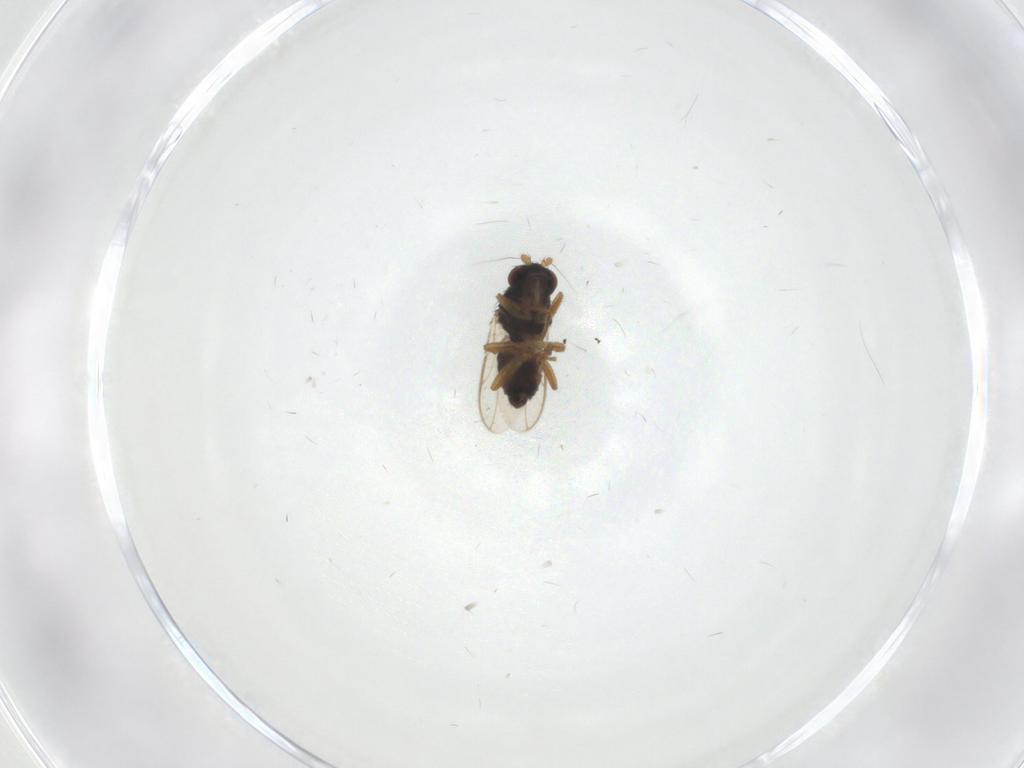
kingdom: Animalia
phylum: Arthropoda
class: Insecta
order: Diptera
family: Sphaeroceridae
